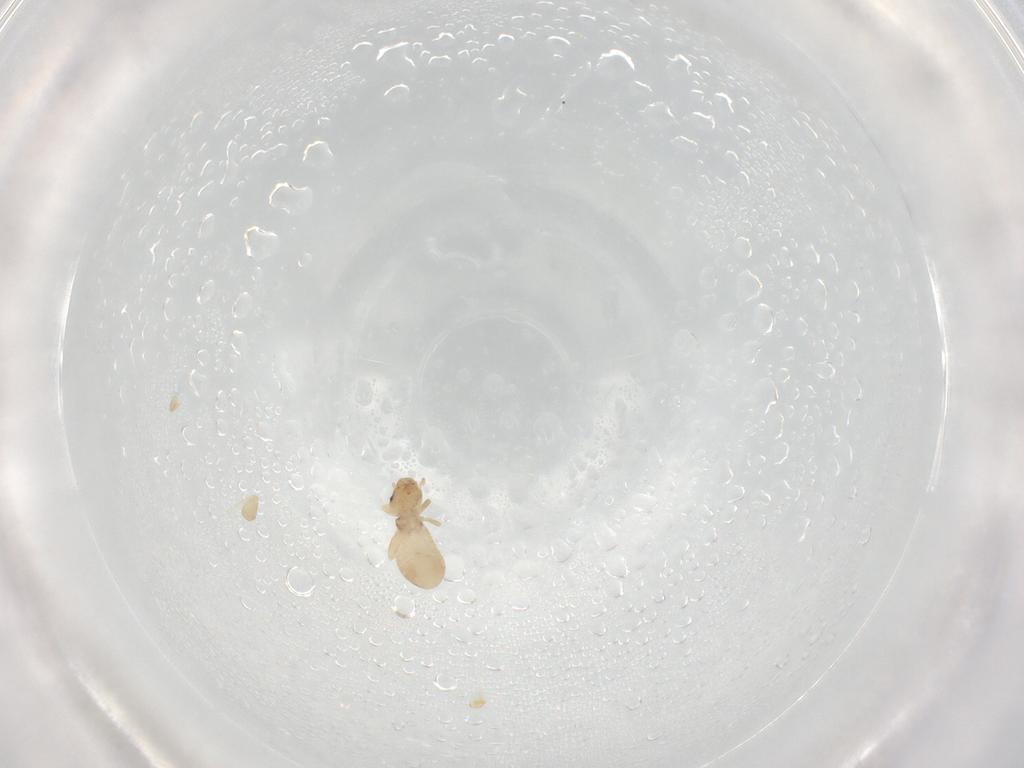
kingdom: Animalia
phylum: Arthropoda
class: Insecta
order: Psocodea
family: Liposcelididae
